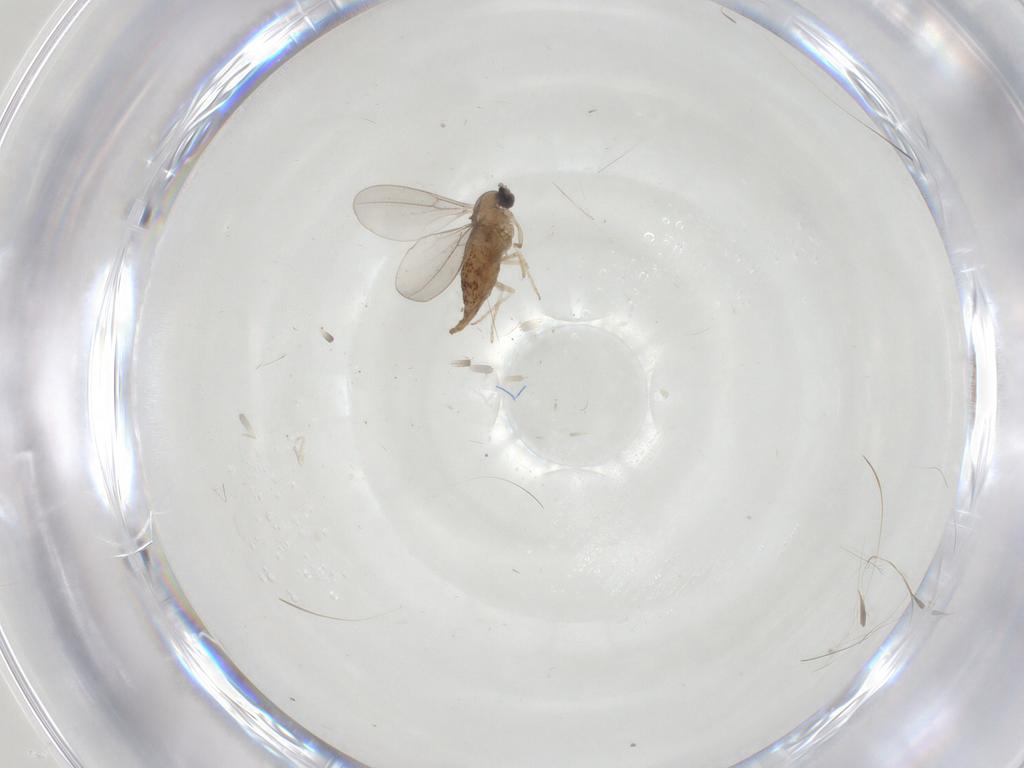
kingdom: Animalia
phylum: Arthropoda
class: Insecta
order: Diptera
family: Cecidomyiidae
